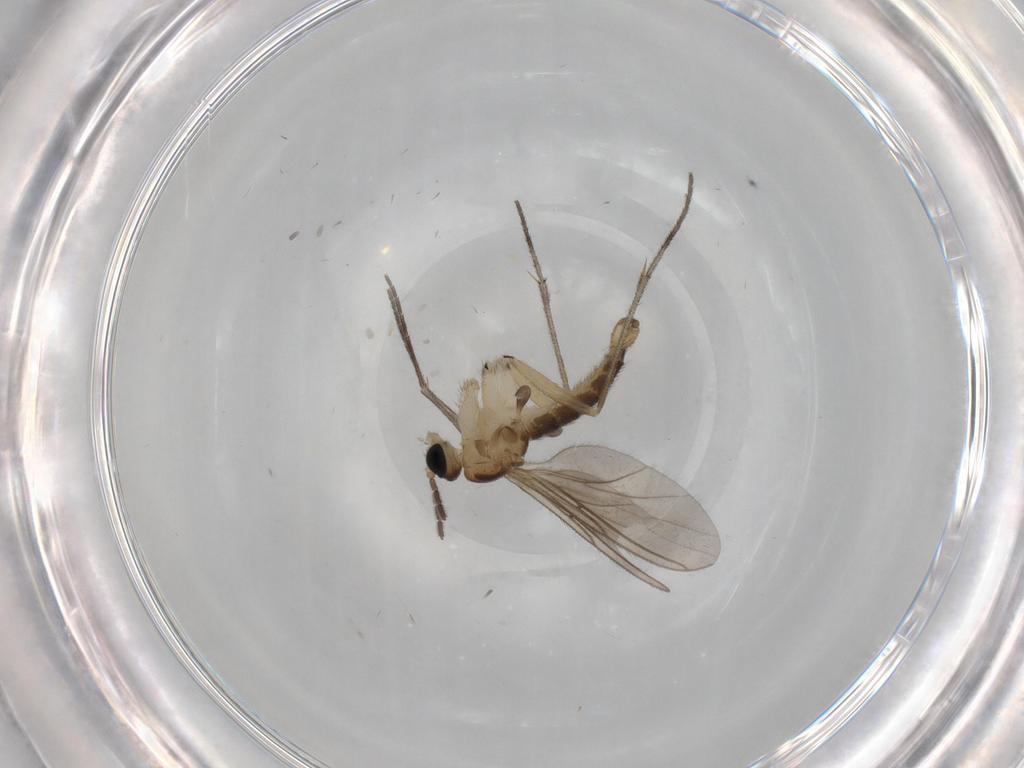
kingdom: Animalia
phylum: Arthropoda
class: Insecta
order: Diptera
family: Sciaridae
